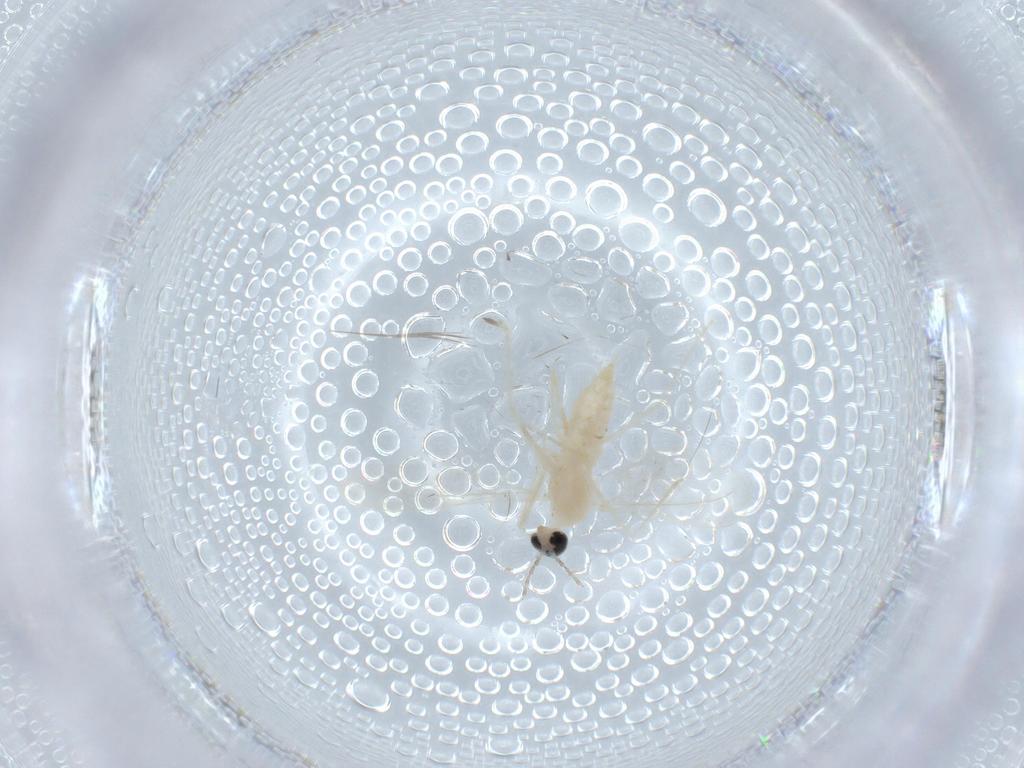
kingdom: Animalia
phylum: Arthropoda
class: Insecta
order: Diptera
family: Cecidomyiidae
